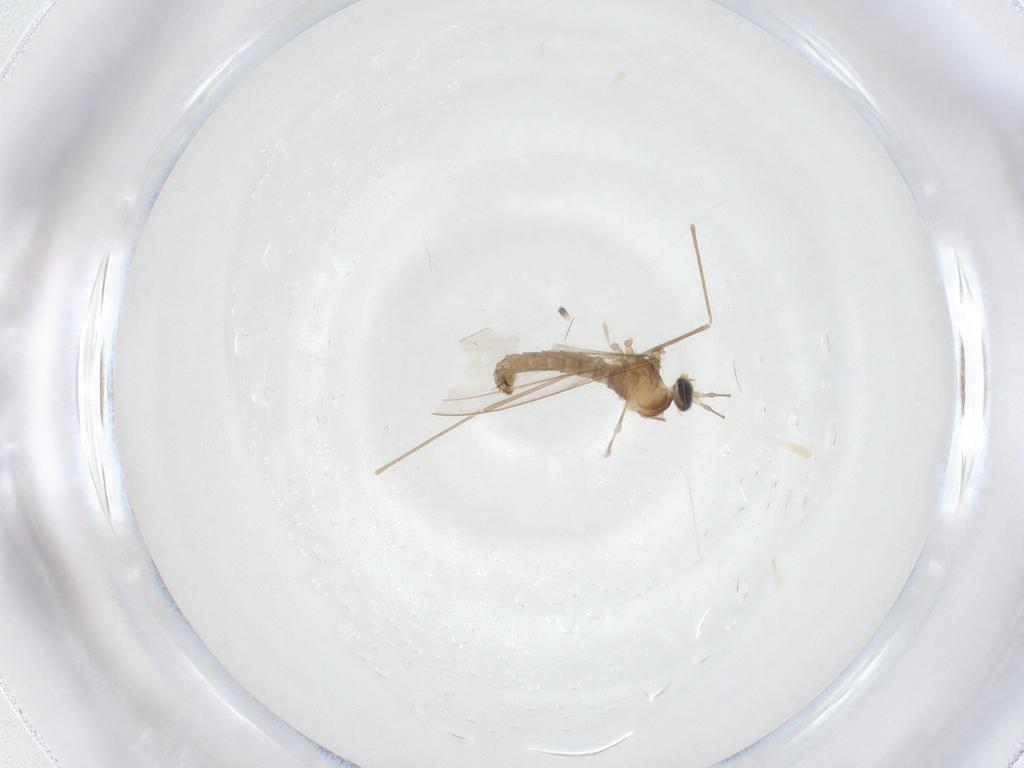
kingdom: Animalia
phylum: Arthropoda
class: Insecta
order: Diptera
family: Cecidomyiidae
